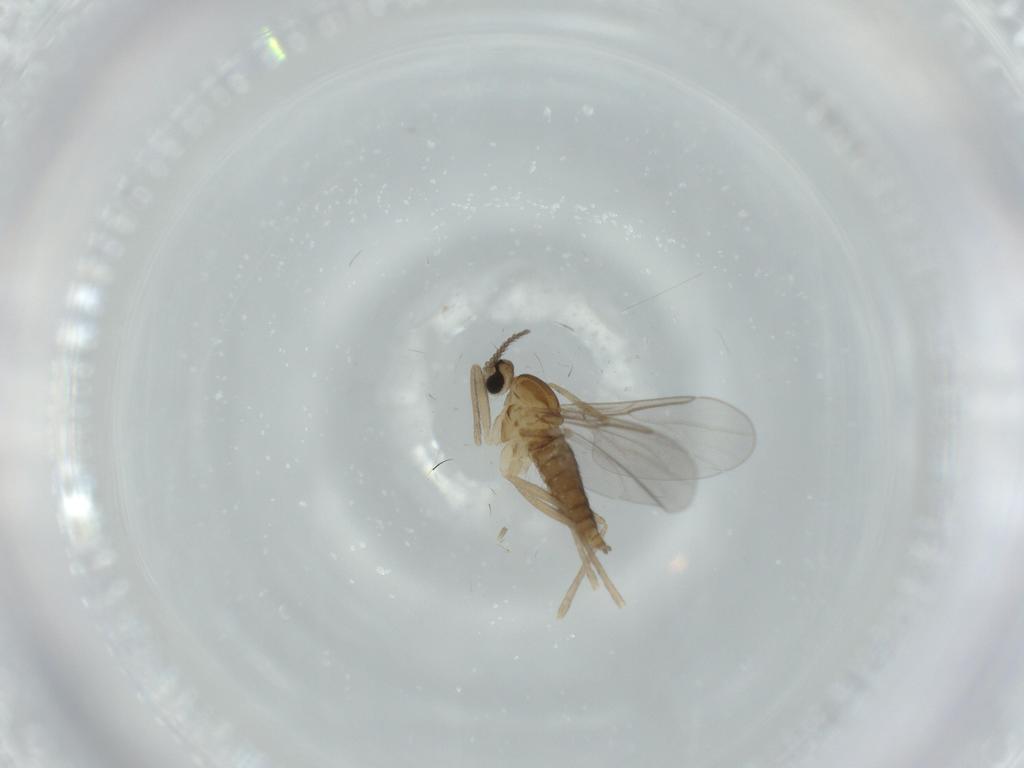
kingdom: Animalia
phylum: Arthropoda
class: Insecta
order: Diptera
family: Cecidomyiidae
